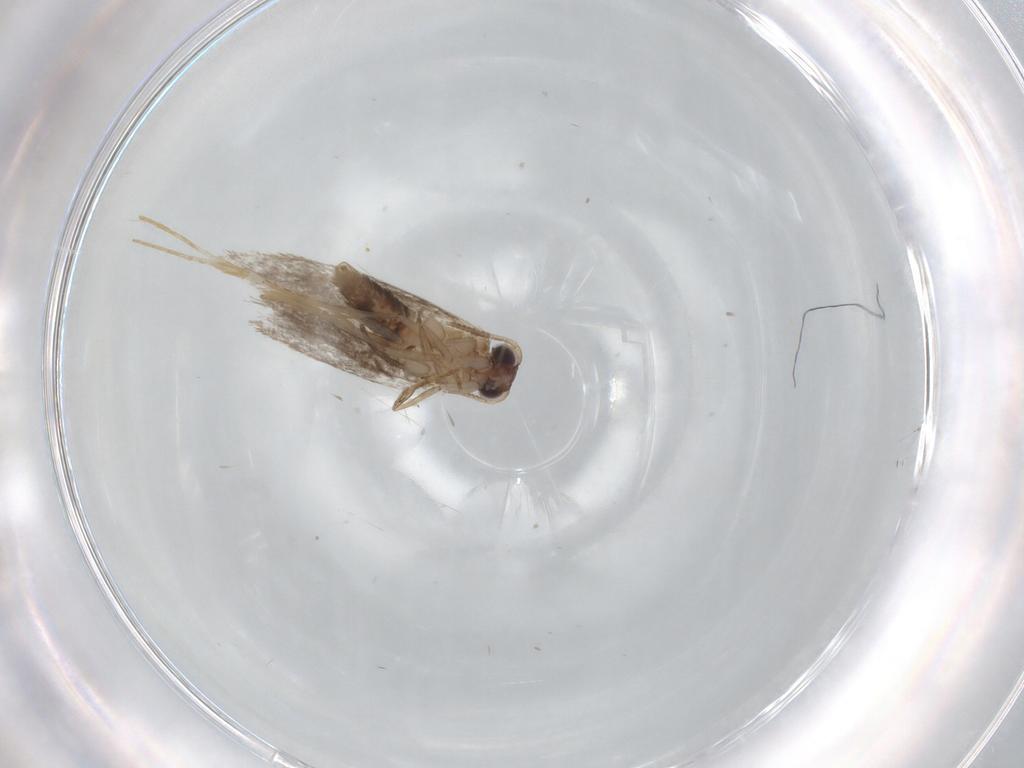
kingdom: Animalia
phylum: Arthropoda
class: Insecta
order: Lepidoptera
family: Tineidae
